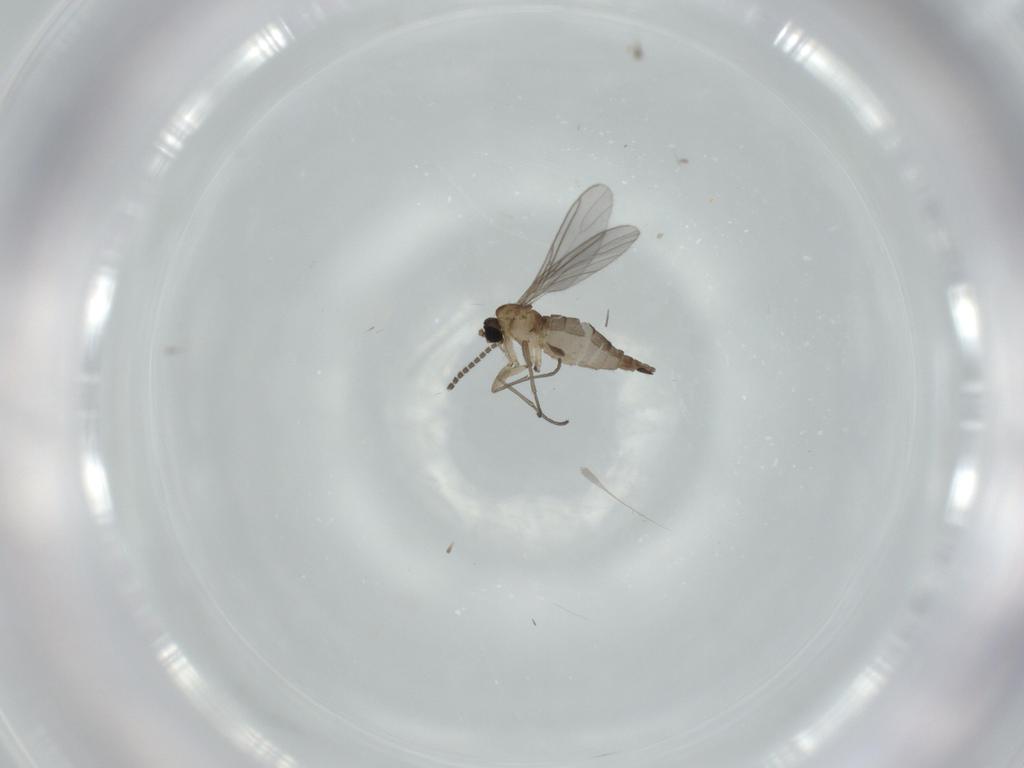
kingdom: Animalia
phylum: Arthropoda
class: Insecta
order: Diptera
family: Sciaridae
